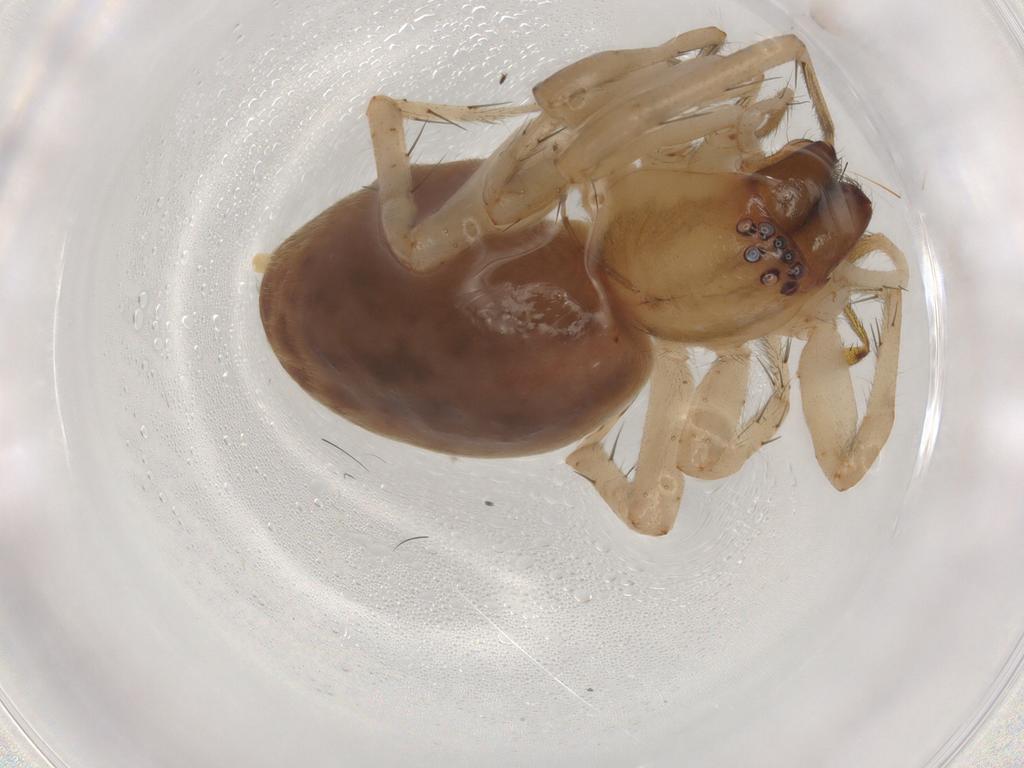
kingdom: Animalia
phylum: Arthropoda
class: Arachnida
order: Araneae
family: Anyphaenidae
